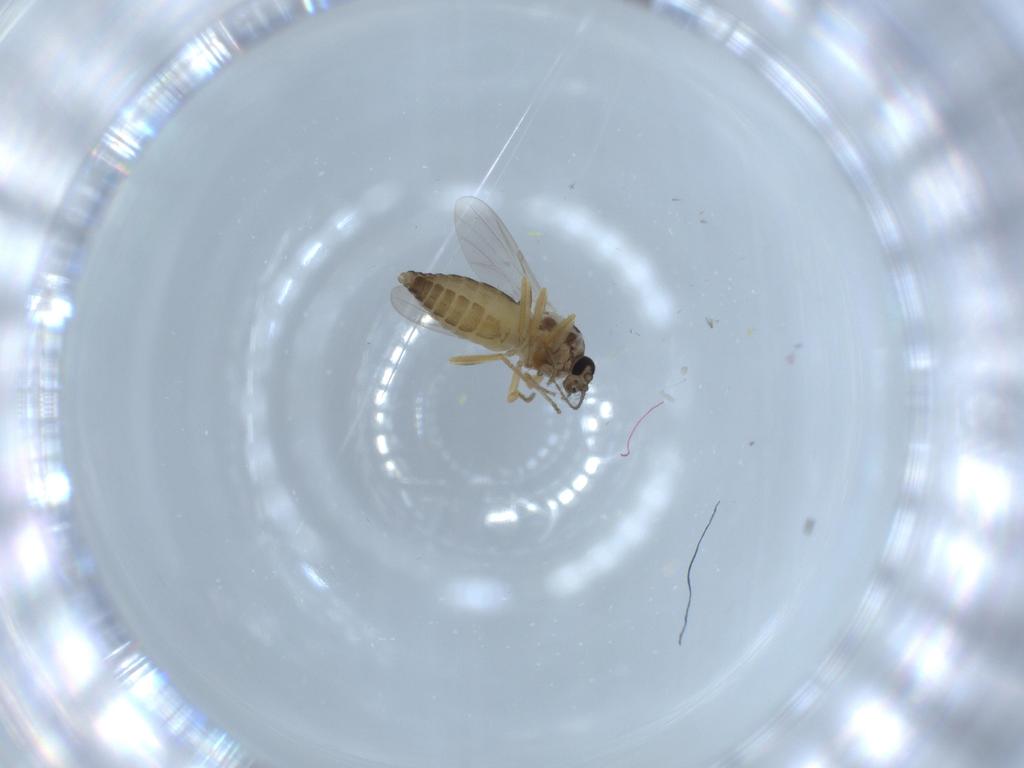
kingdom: Animalia
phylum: Arthropoda
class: Insecta
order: Diptera
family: Ceratopogonidae
